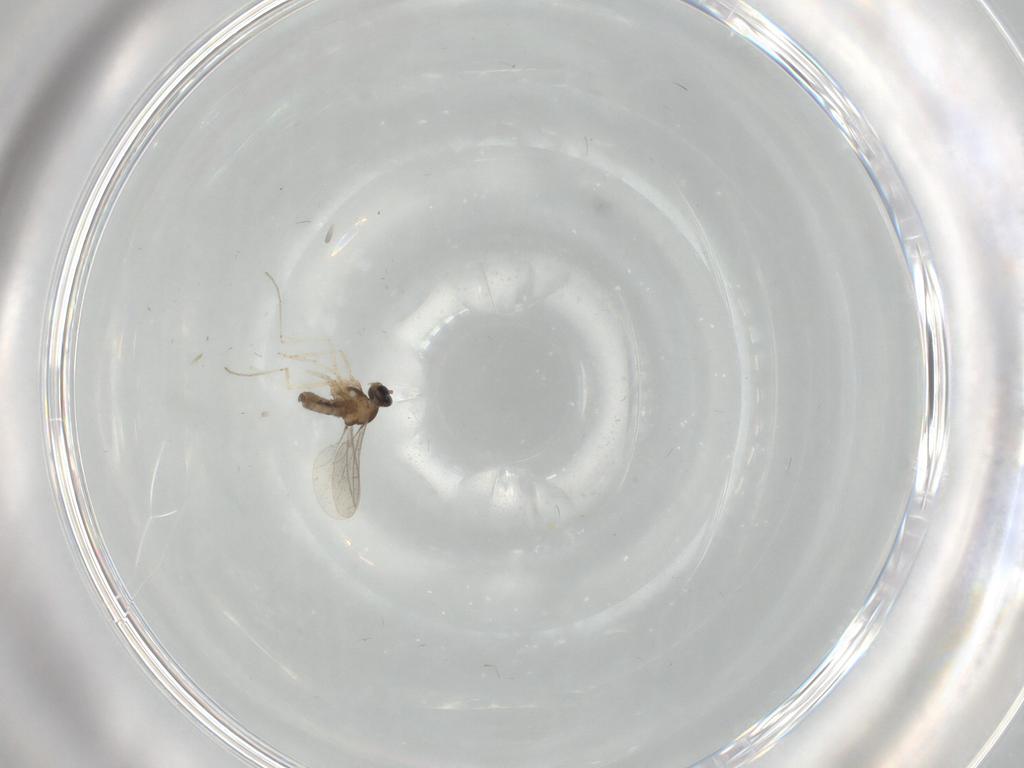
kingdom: Animalia
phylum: Arthropoda
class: Insecta
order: Diptera
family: Cecidomyiidae
